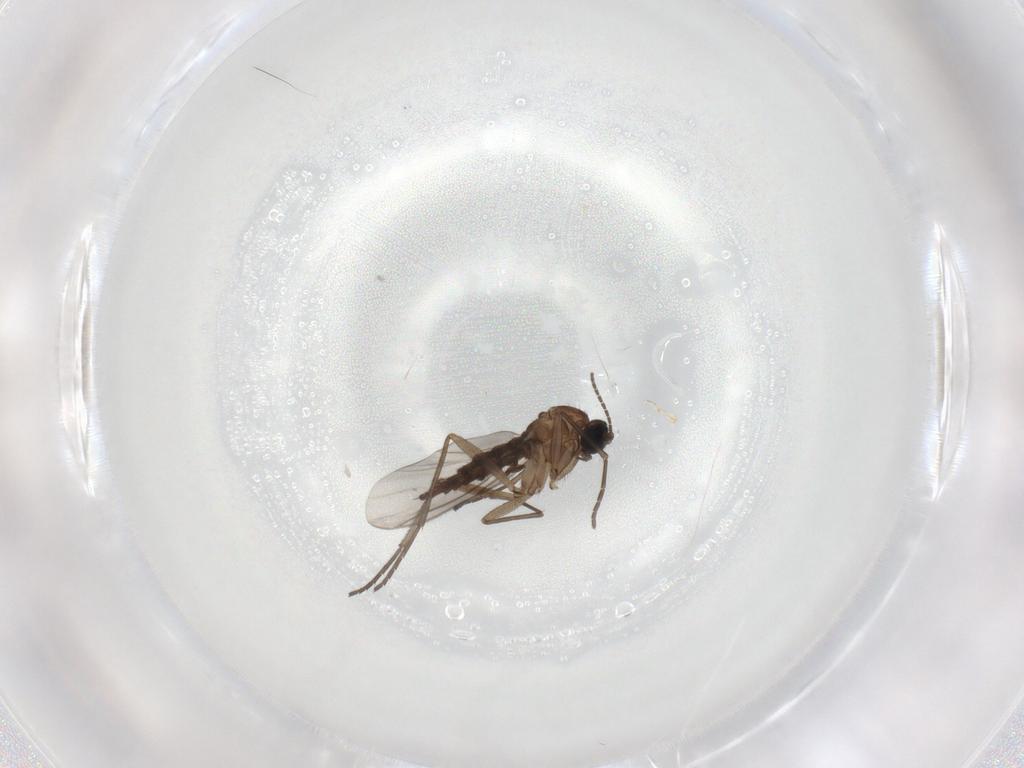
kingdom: Animalia
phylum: Arthropoda
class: Insecta
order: Diptera
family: Sciaridae
